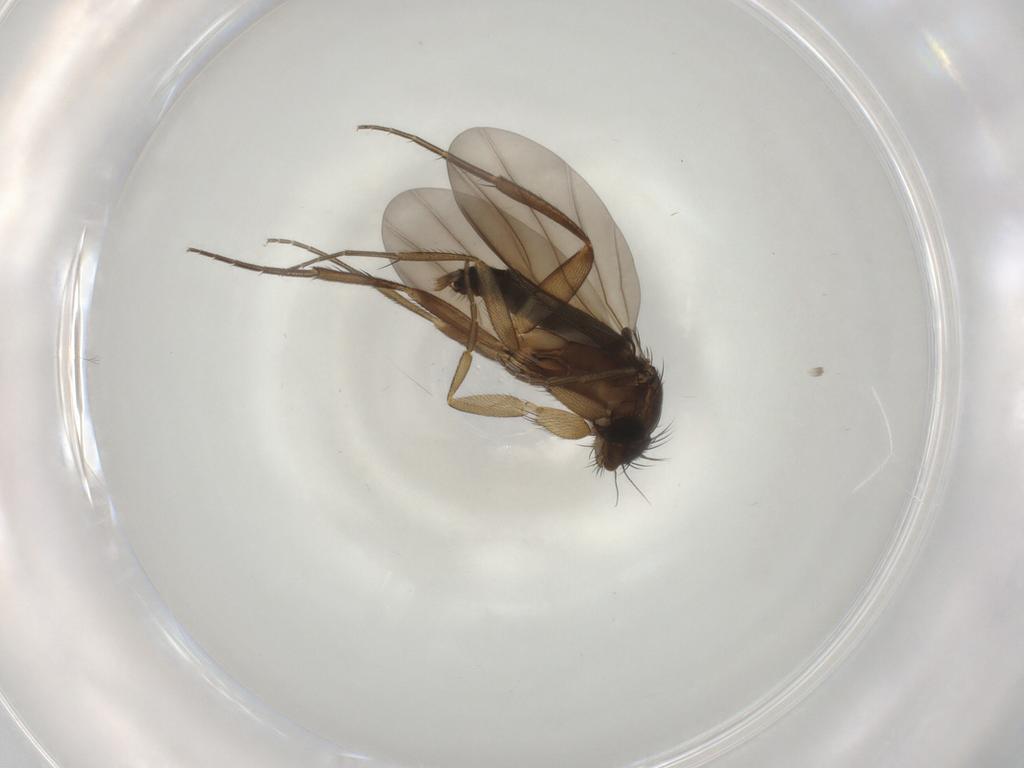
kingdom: Animalia
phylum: Arthropoda
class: Insecta
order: Diptera
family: Phoridae
